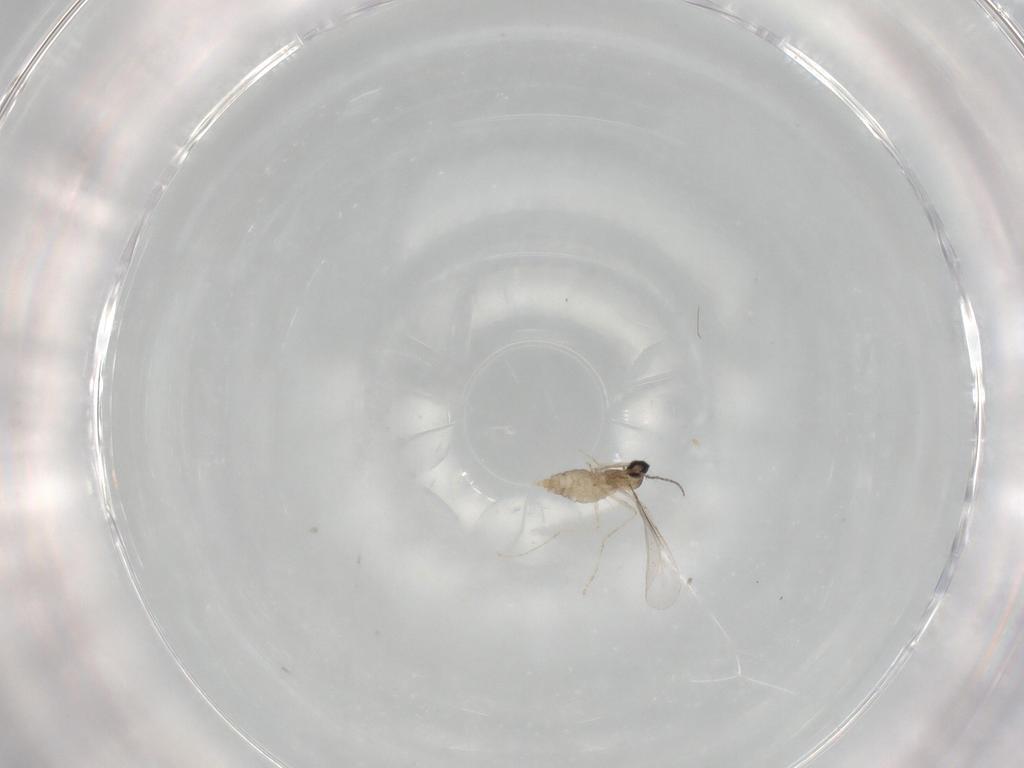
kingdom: Animalia
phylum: Arthropoda
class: Insecta
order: Diptera
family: Cecidomyiidae
